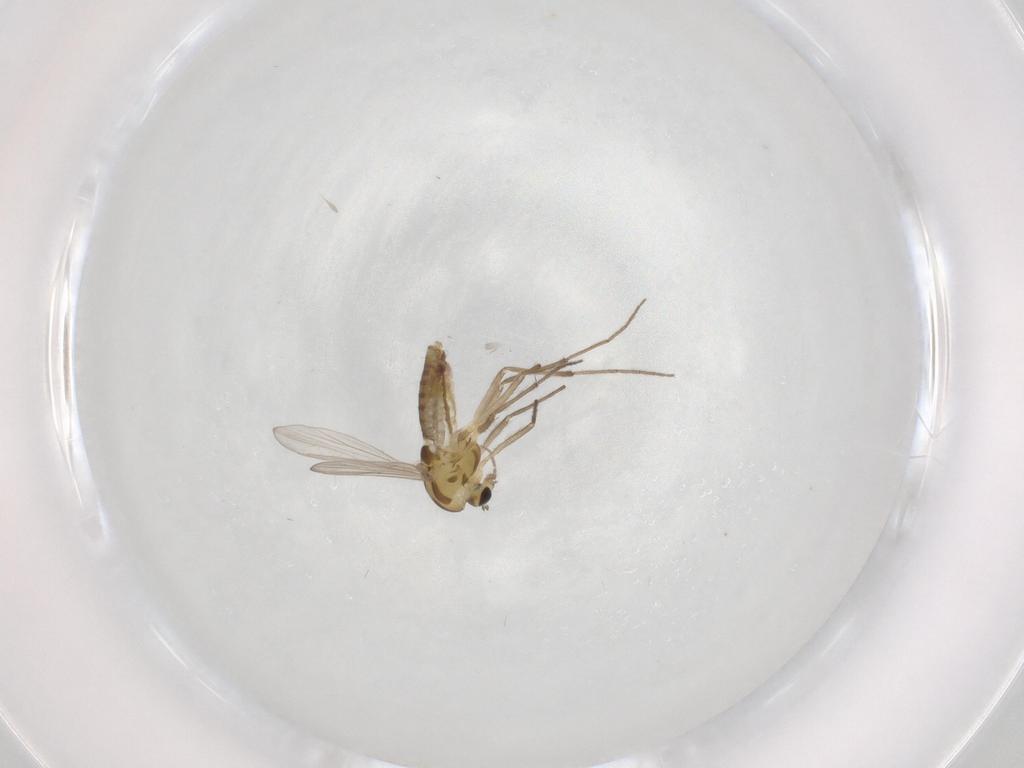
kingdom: Animalia
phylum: Arthropoda
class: Insecta
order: Diptera
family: Chironomidae
